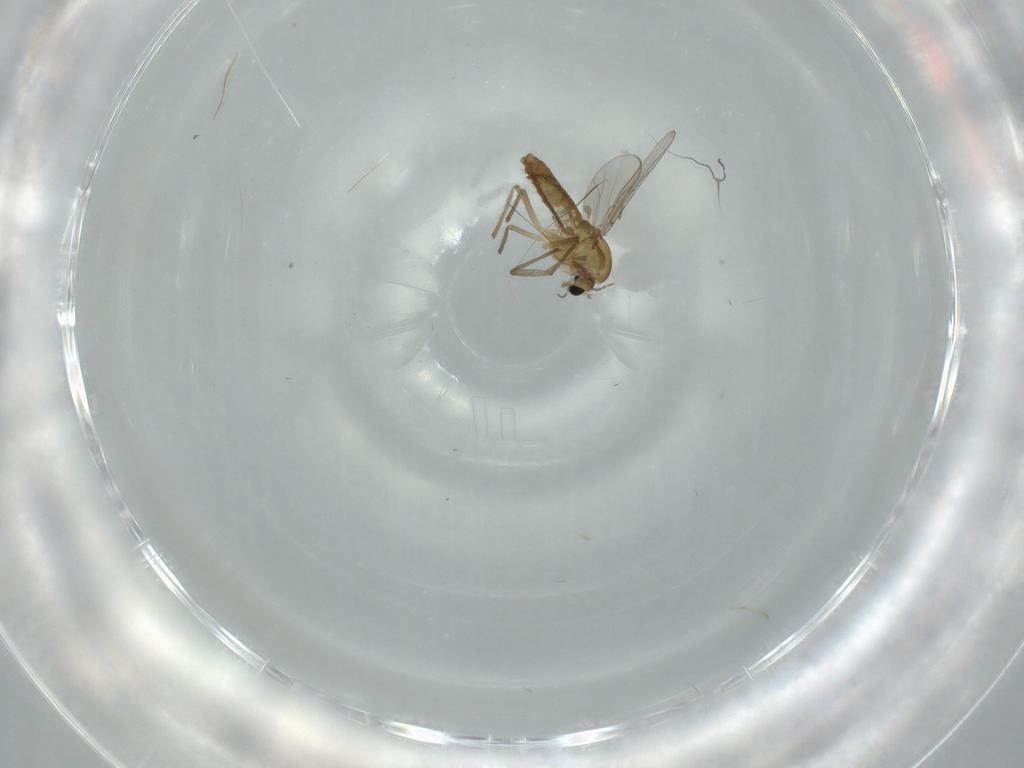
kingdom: Animalia
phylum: Arthropoda
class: Insecta
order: Diptera
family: Chironomidae
